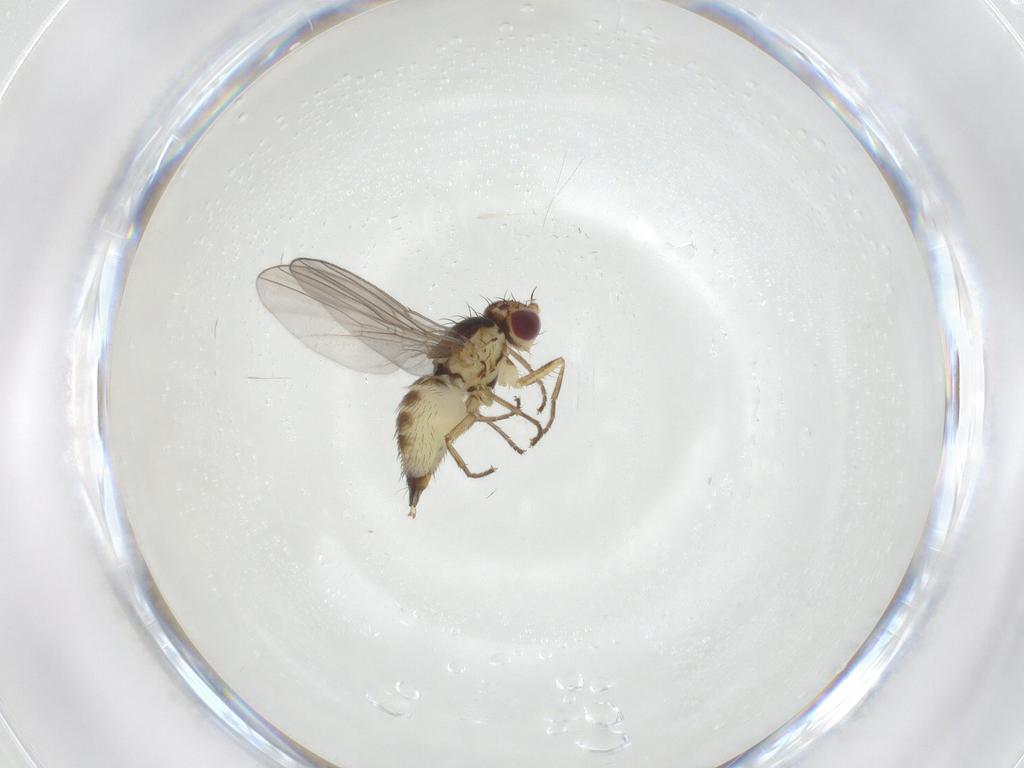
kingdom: Animalia
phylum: Arthropoda
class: Insecta
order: Diptera
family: Agromyzidae
